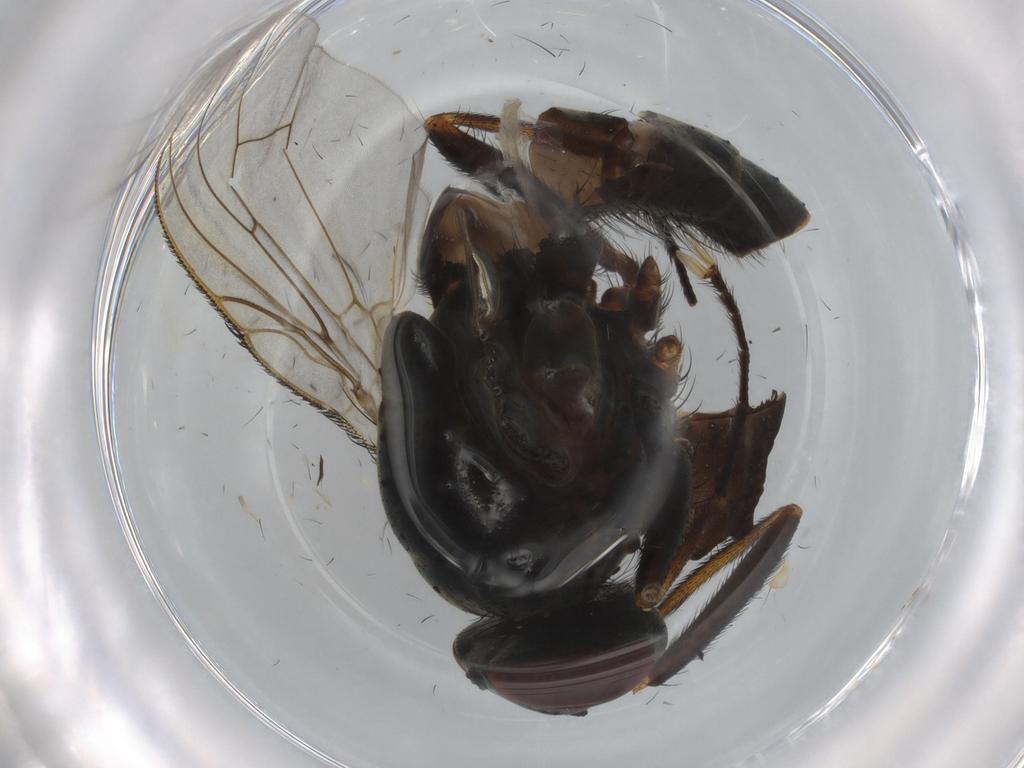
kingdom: Animalia
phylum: Arthropoda
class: Insecta
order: Diptera
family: Muscidae
